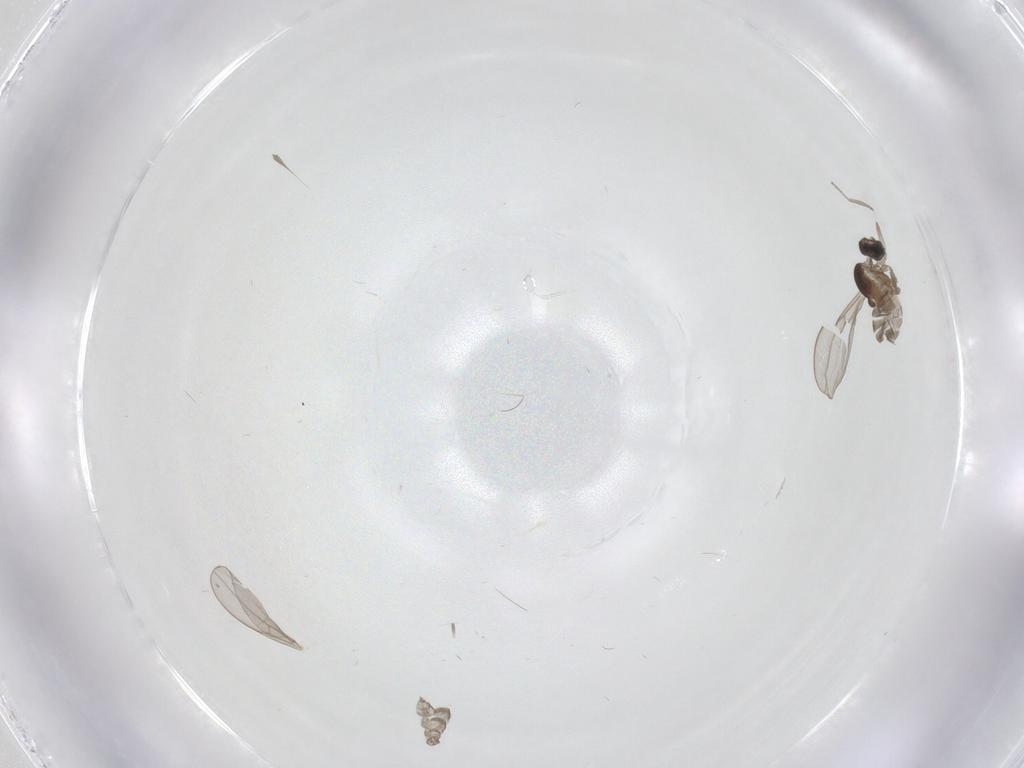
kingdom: Animalia
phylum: Arthropoda
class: Insecta
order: Diptera
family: Limoniidae
